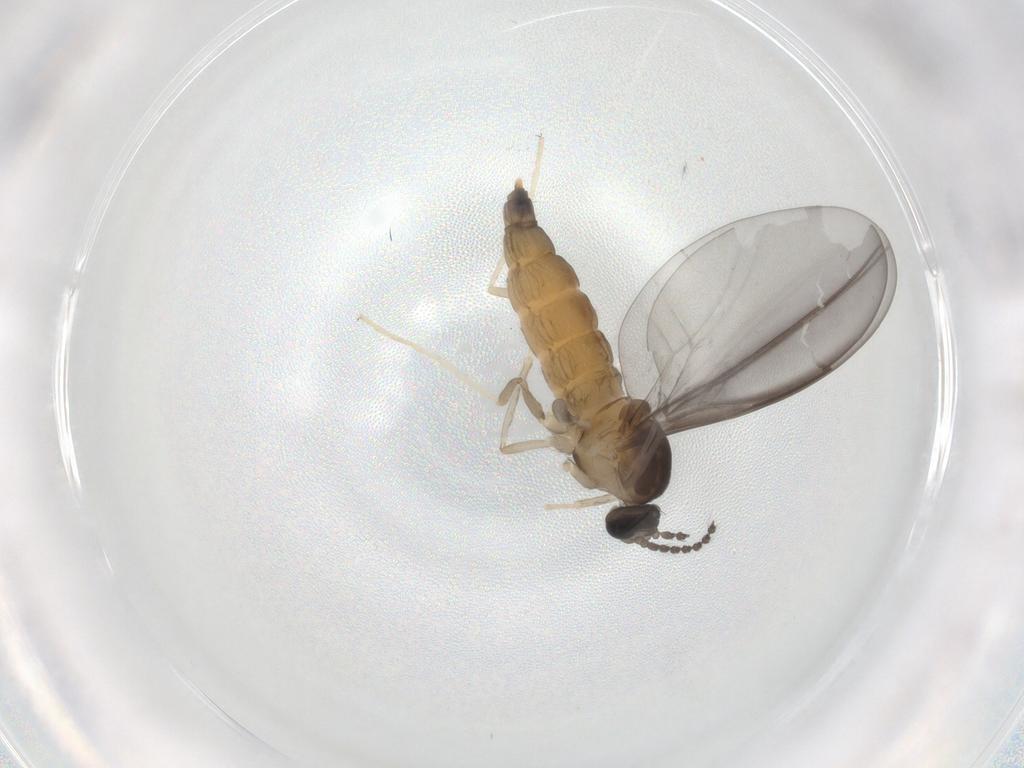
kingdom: Animalia
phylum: Arthropoda
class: Insecta
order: Diptera
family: Cecidomyiidae
